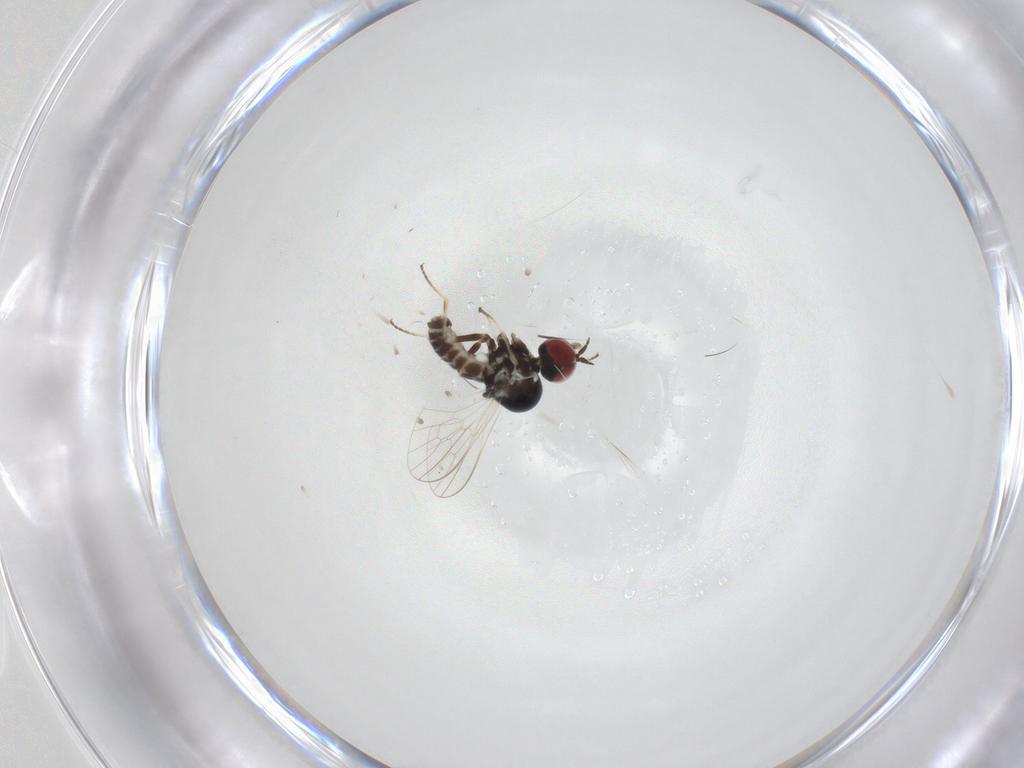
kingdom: Animalia
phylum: Arthropoda
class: Insecta
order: Diptera
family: Bombyliidae
